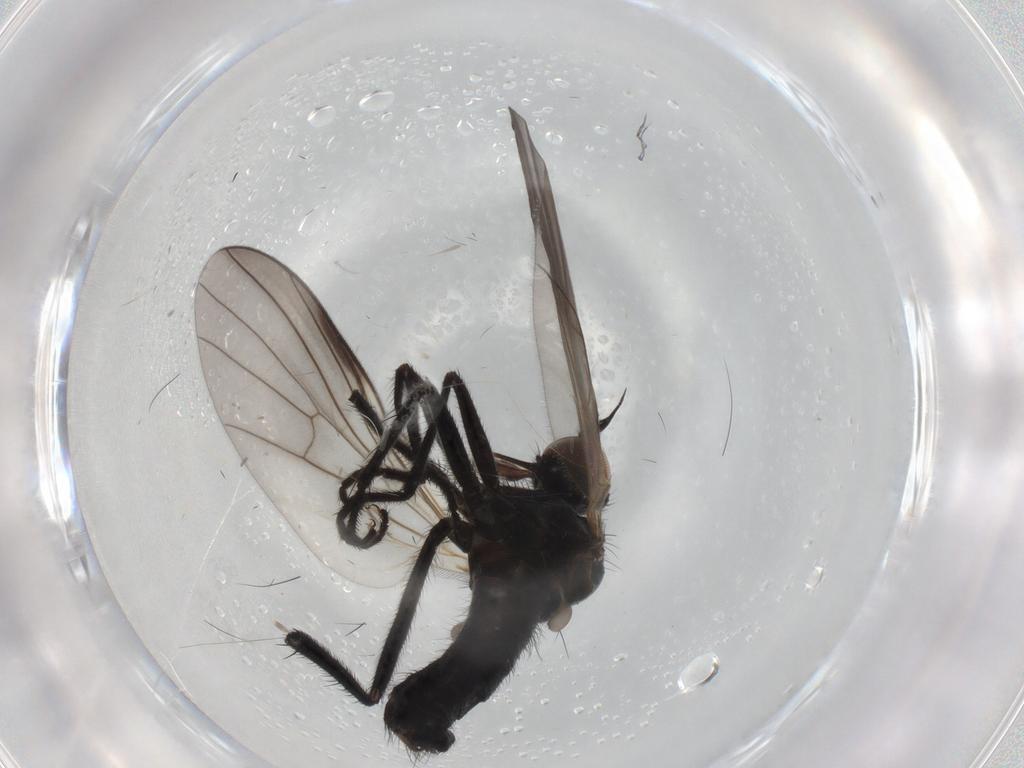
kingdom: Animalia
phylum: Arthropoda
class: Insecta
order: Diptera
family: Empididae
